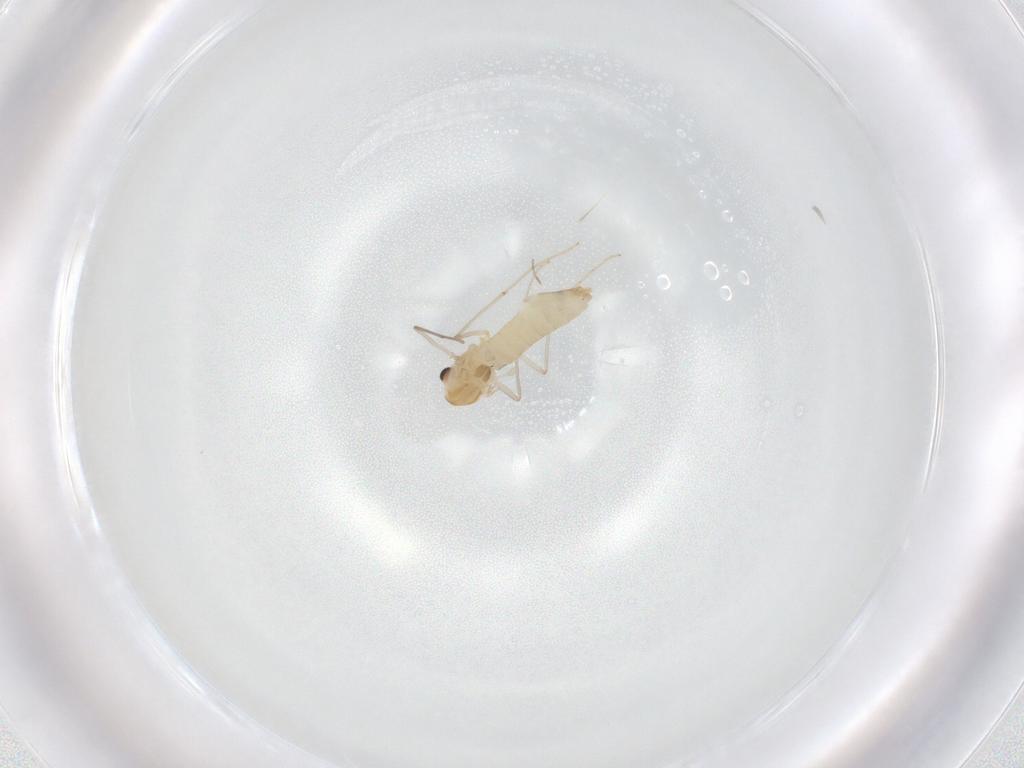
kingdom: Animalia
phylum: Arthropoda
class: Insecta
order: Diptera
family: Chironomidae
